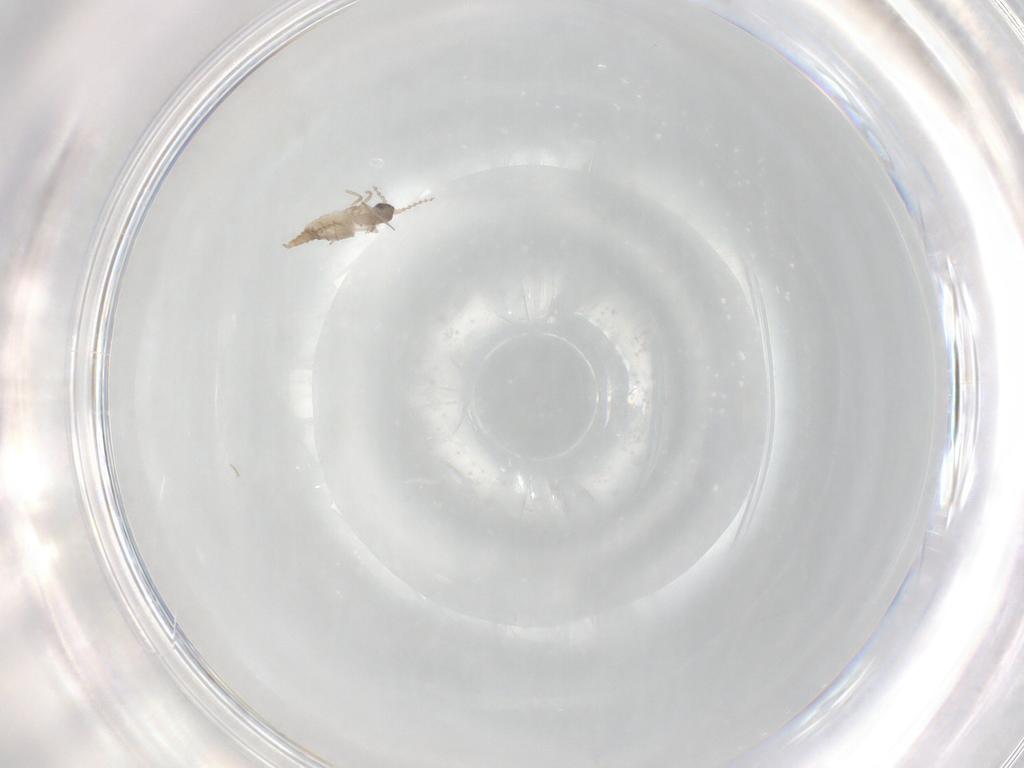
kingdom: Animalia
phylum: Arthropoda
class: Insecta
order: Diptera
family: Cecidomyiidae
